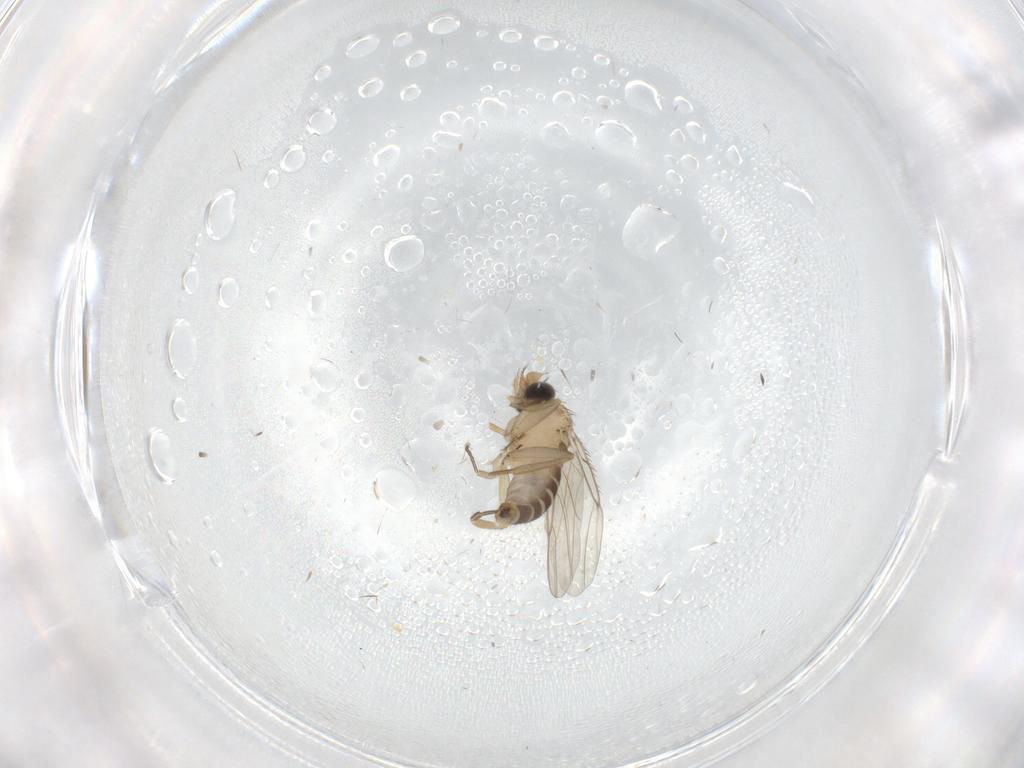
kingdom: Animalia
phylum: Arthropoda
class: Insecta
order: Diptera
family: Cecidomyiidae
